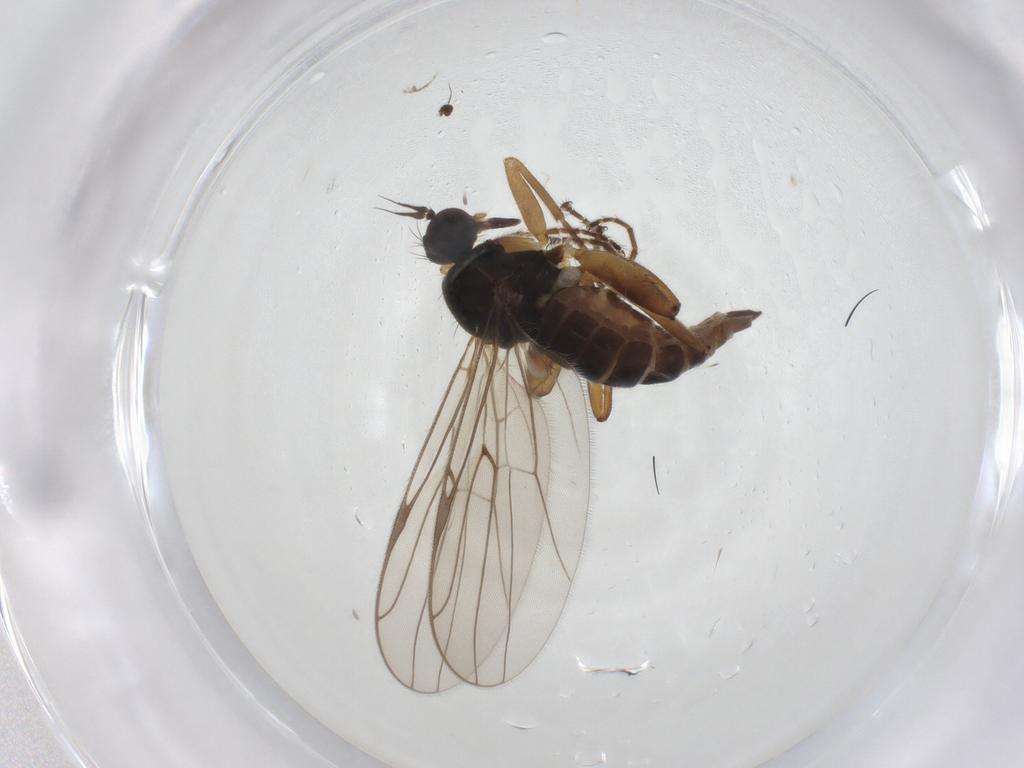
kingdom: Animalia
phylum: Arthropoda
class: Insecta
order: Diptera
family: Hybotidae
